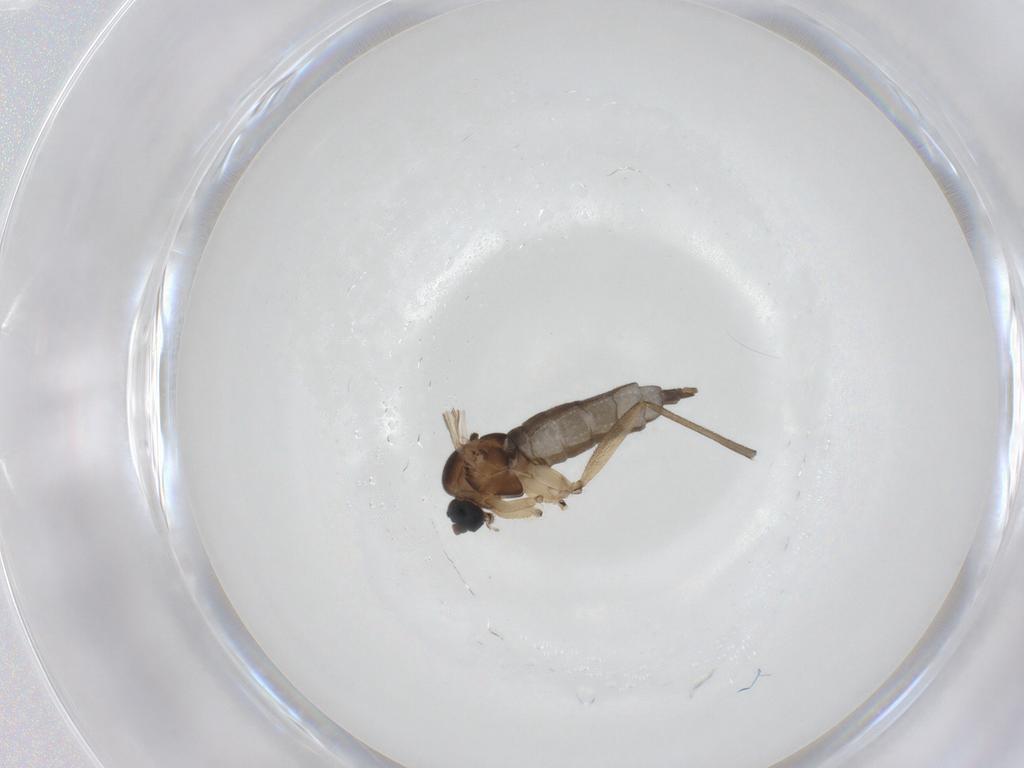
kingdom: Animalia
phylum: Arthropoda
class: Insecta
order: Diptera
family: Sciaridae
